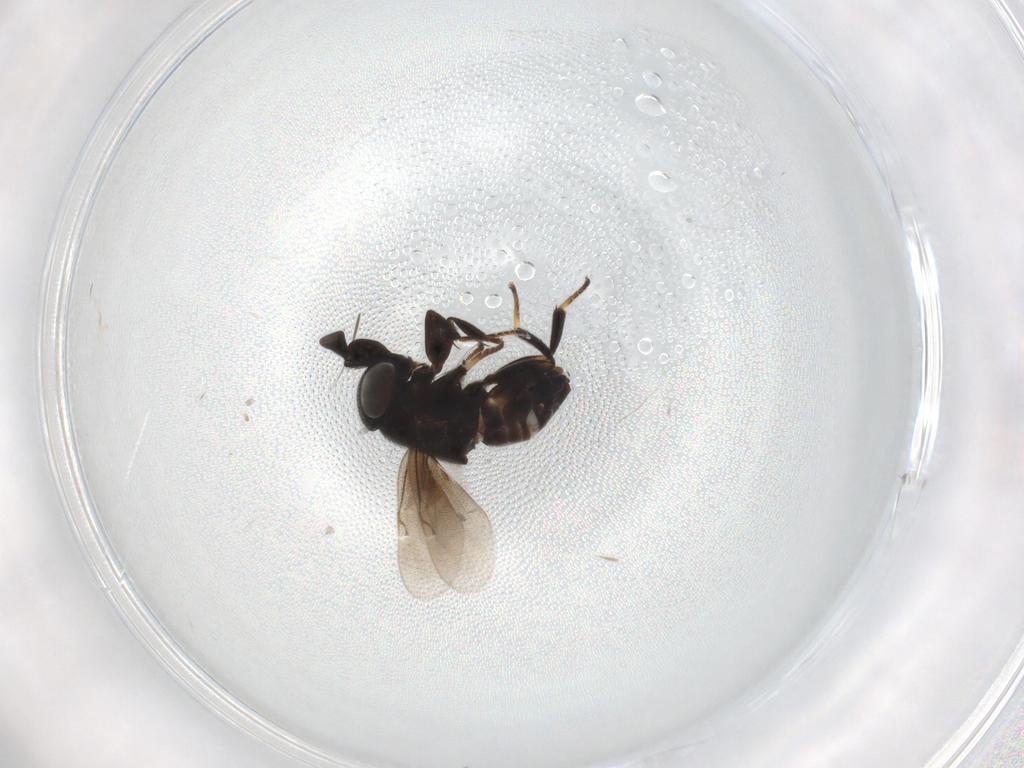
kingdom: Animalia
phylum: Arthropoda
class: Insecta
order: Hymenoptera
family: Encyrtidae
